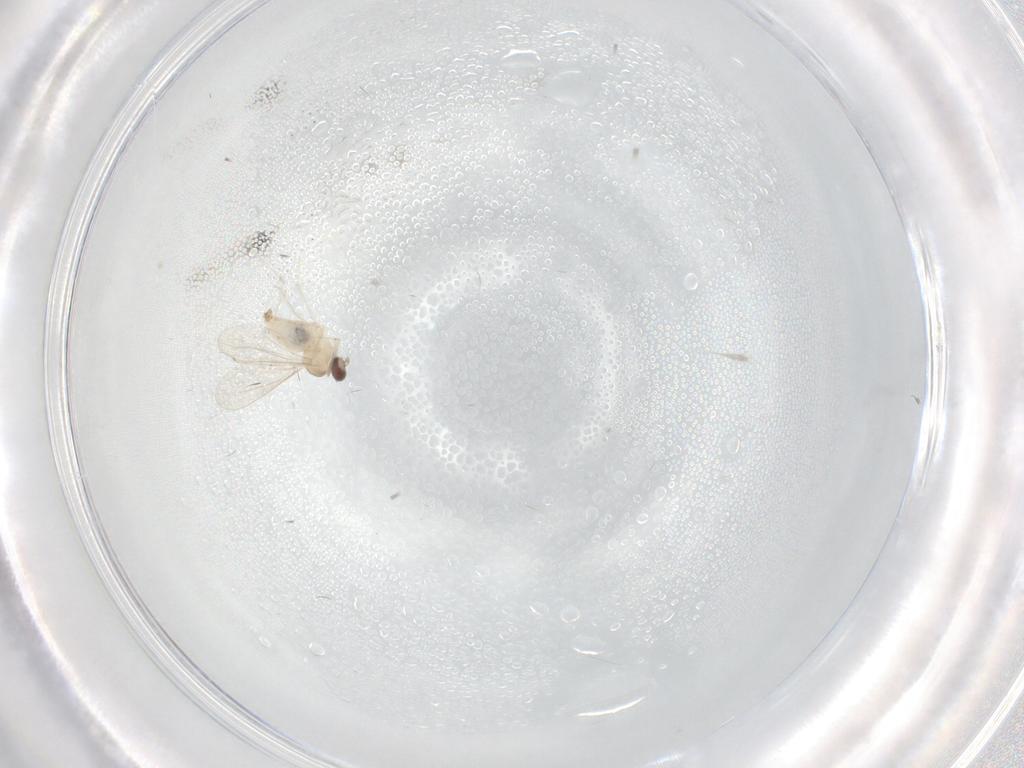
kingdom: Animalia
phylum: Arthropoda
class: Insecta
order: Diptera
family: Cecidomyiidae
